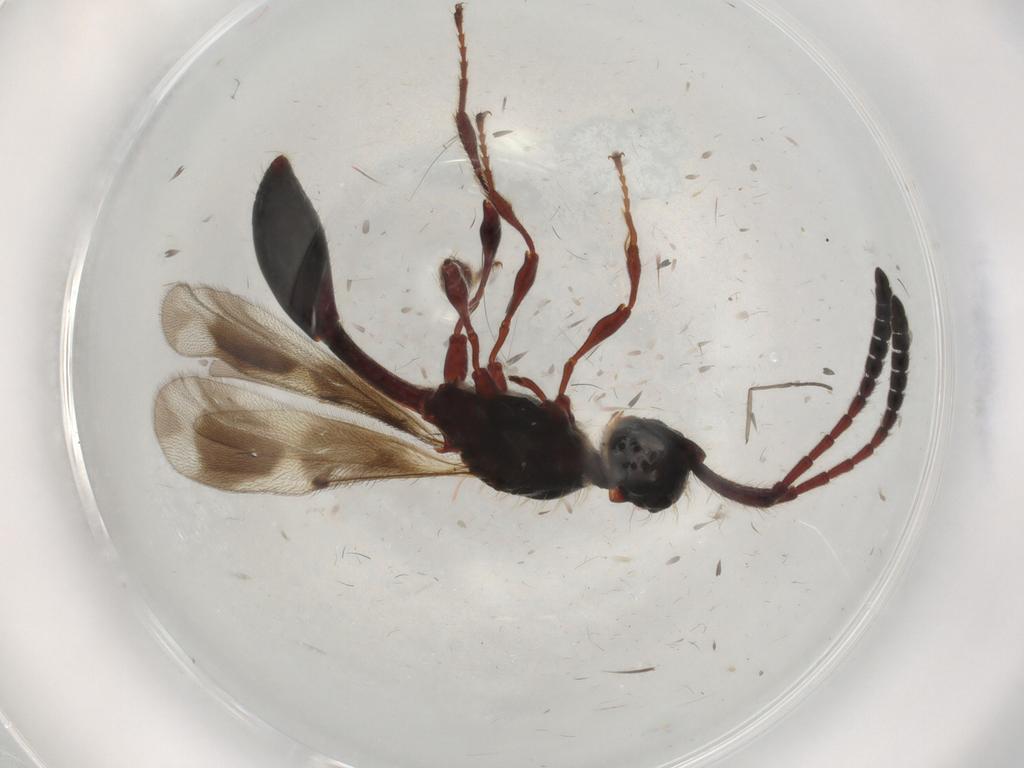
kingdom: Animalia
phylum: Arthropoda
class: Insecta
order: Hymenoptera
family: Diapriidae
